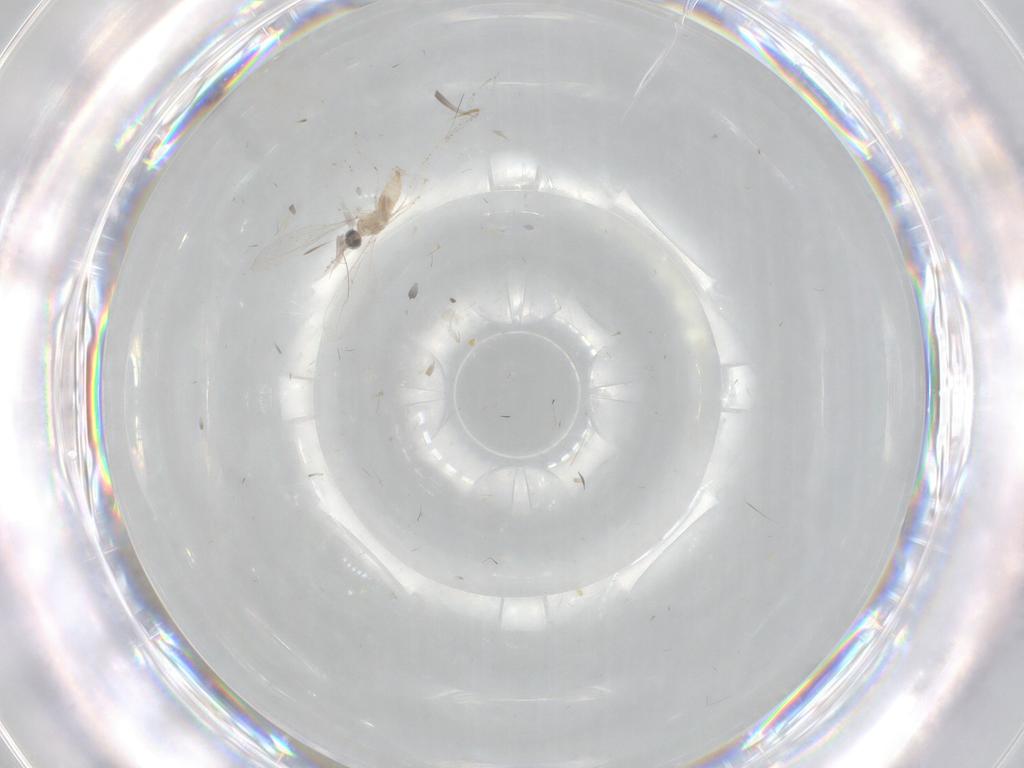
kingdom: Animalia
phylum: Arthropoda
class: Insecta
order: Diptera
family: Cecidomyiidae
